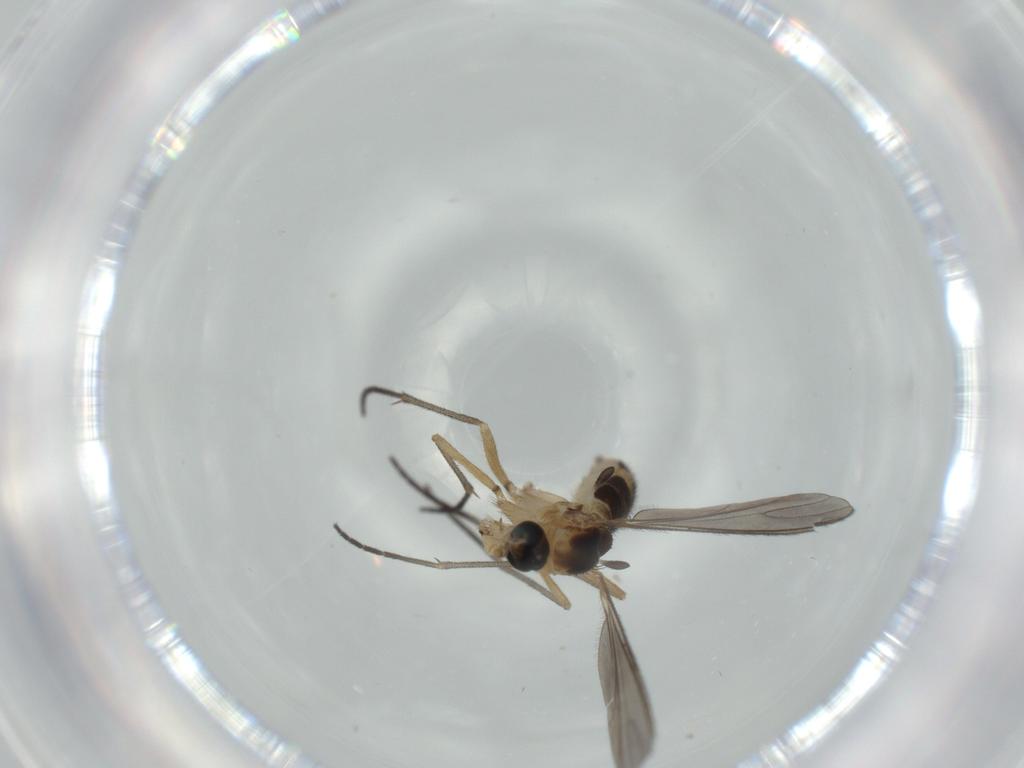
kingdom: Animalia
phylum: Arthropoda
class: Insecta
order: Diptera
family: Sciaridae
